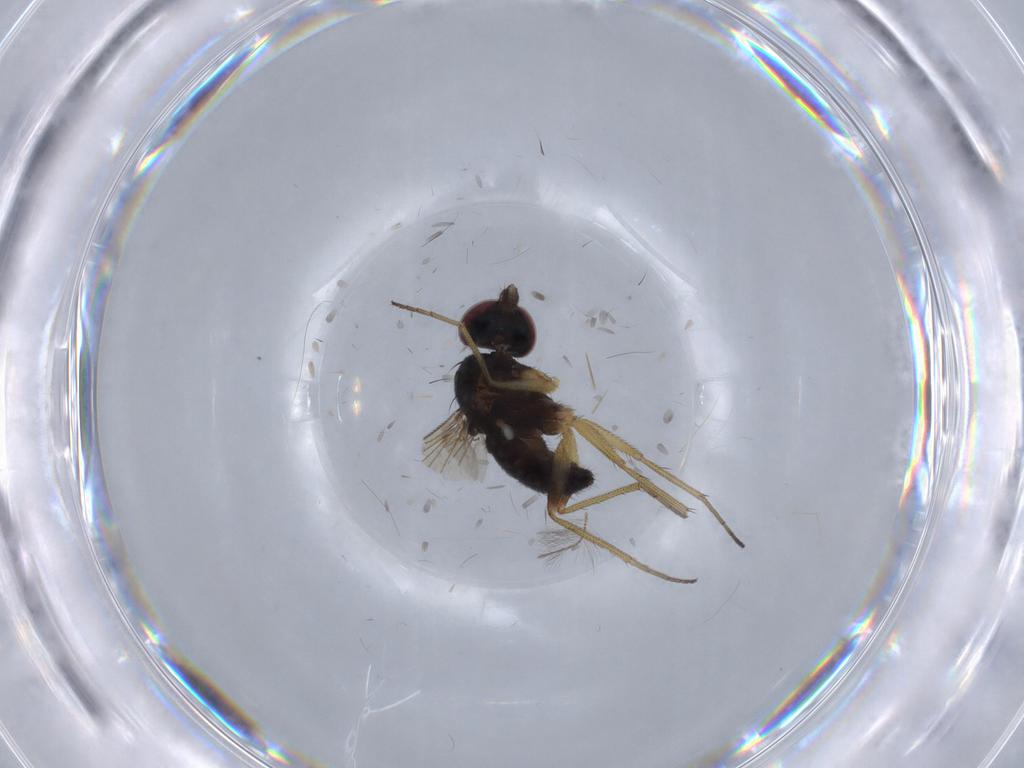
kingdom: Animalia
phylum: Arthropoda
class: Insecta
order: Diptera
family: Dolichopodidae
